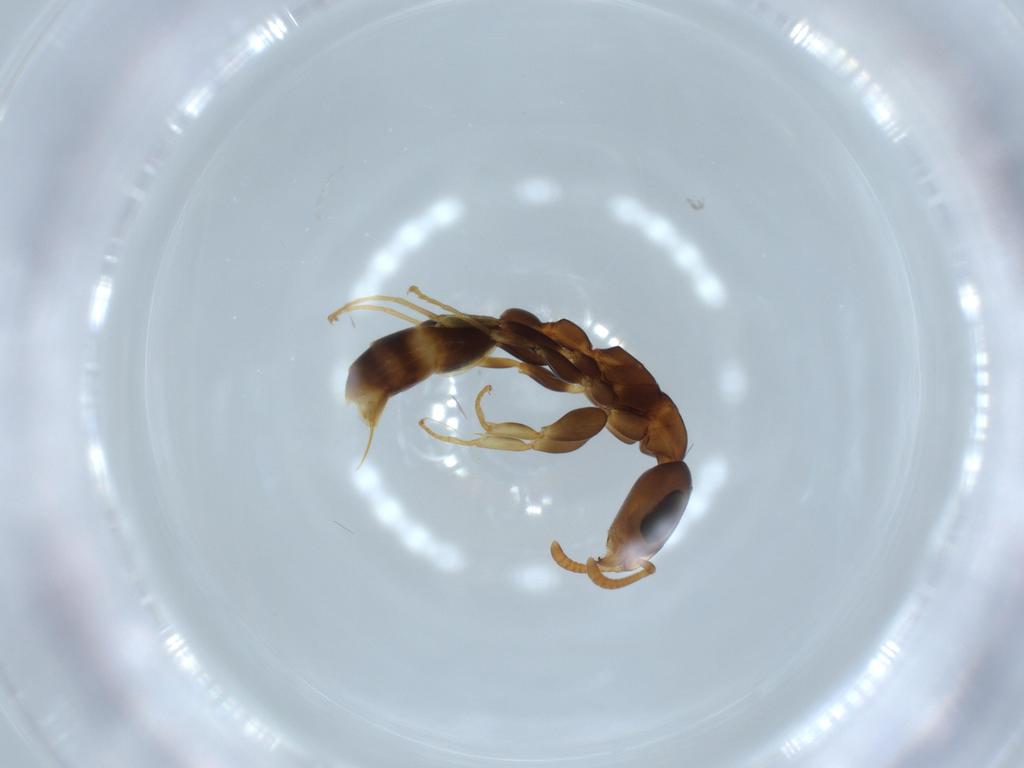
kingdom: Animalia
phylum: Arthropoda
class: Insecta
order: Hymenoptera
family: Formicidae
